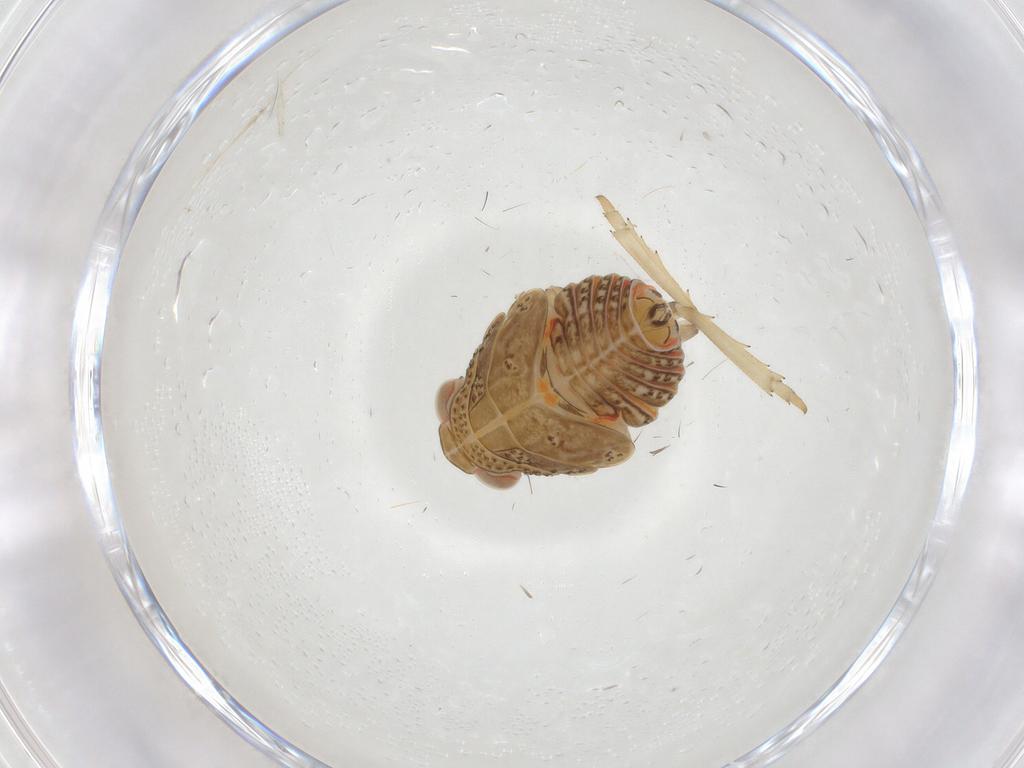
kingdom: Animalia
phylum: Arthropoda
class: Insecta
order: Hemiptera
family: Issidae
